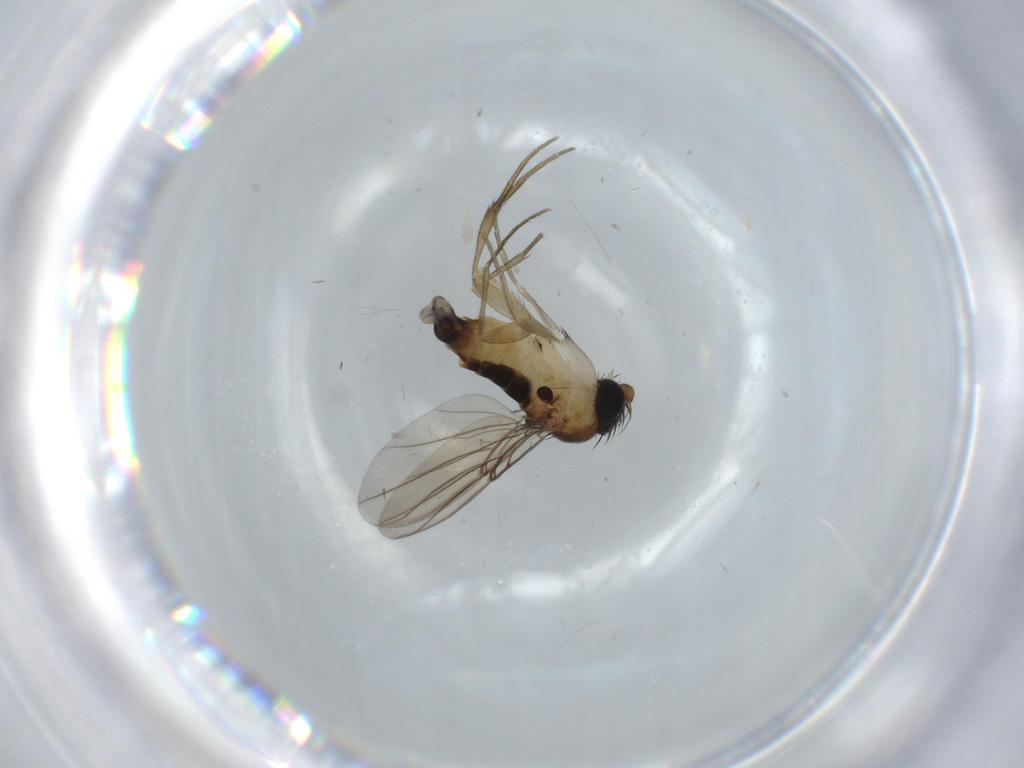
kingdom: Animalia
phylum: Arthropoda
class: Insecta
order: Diptera
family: Phoridae
